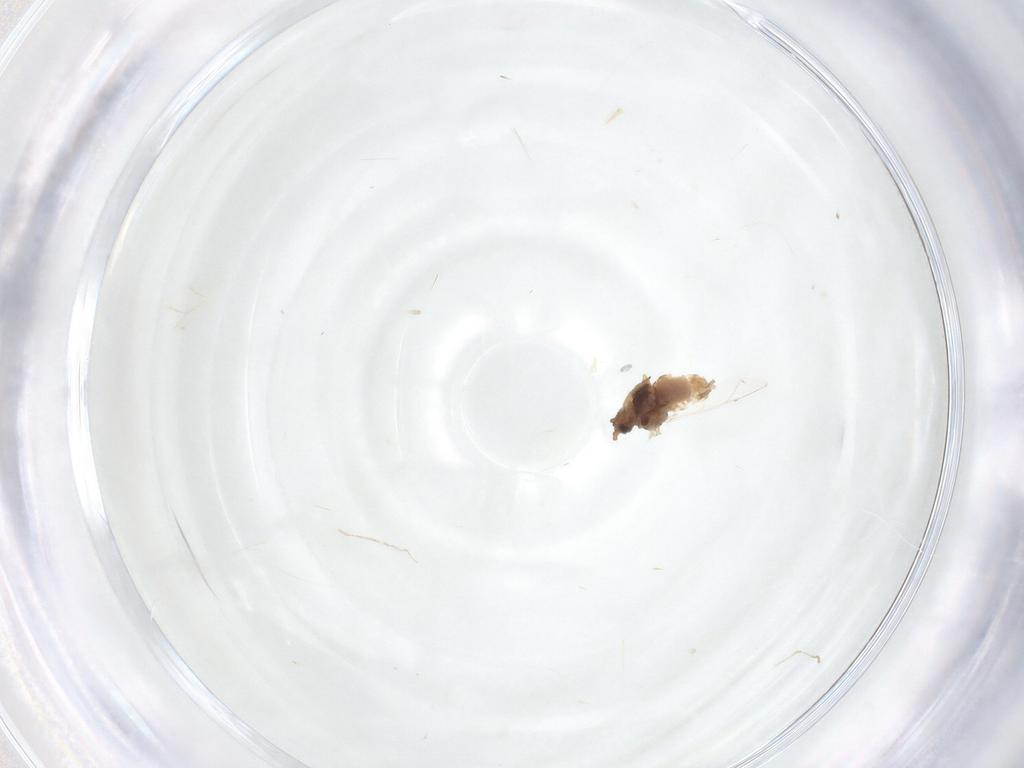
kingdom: Animalia
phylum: Arthropoda
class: Insecta
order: Hemiptera
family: Aphididae
